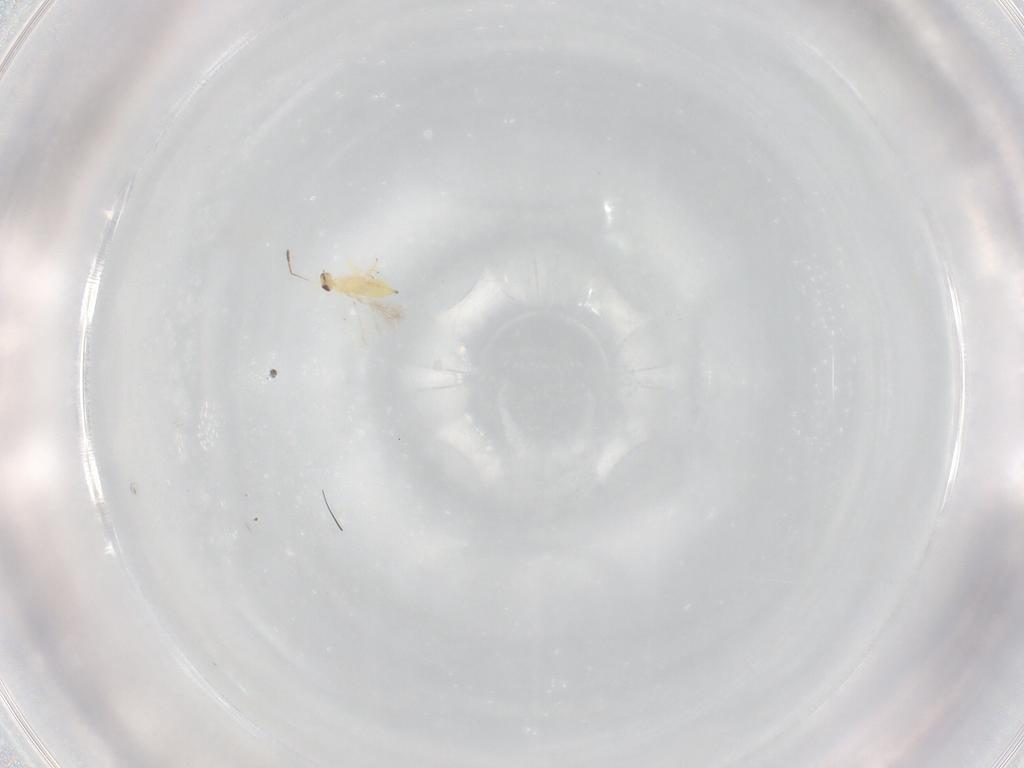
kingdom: Animalia
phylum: Arthropoda
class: Insecta
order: Hymenoptera
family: Mymaridae
